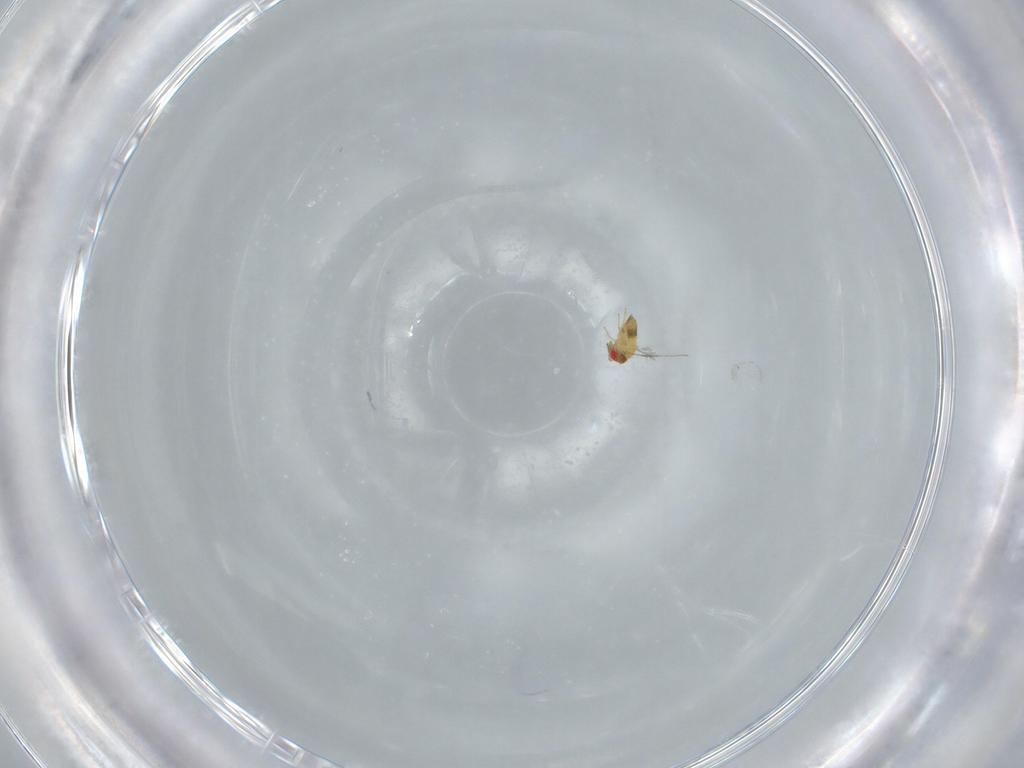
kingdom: Animalia
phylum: Arthropoda
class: Insecta
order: Hymenoptera
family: Trichogrammatidae
